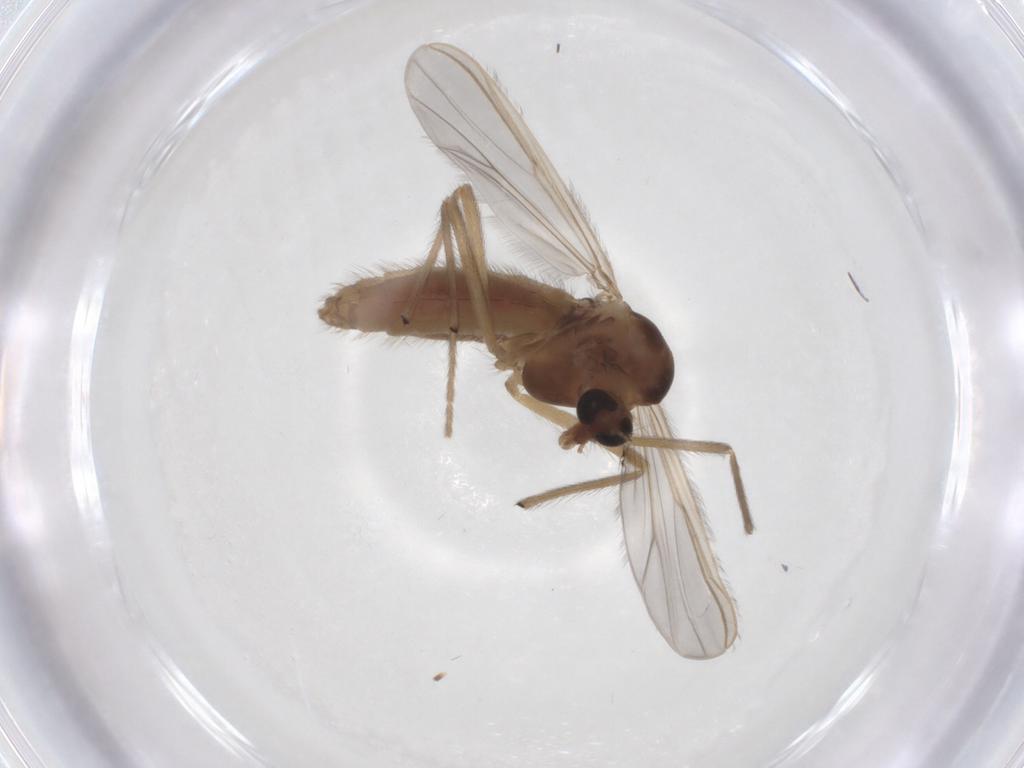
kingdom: Animalia
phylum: Arthropoda
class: Insecta
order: Diptera
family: Chironomidae
